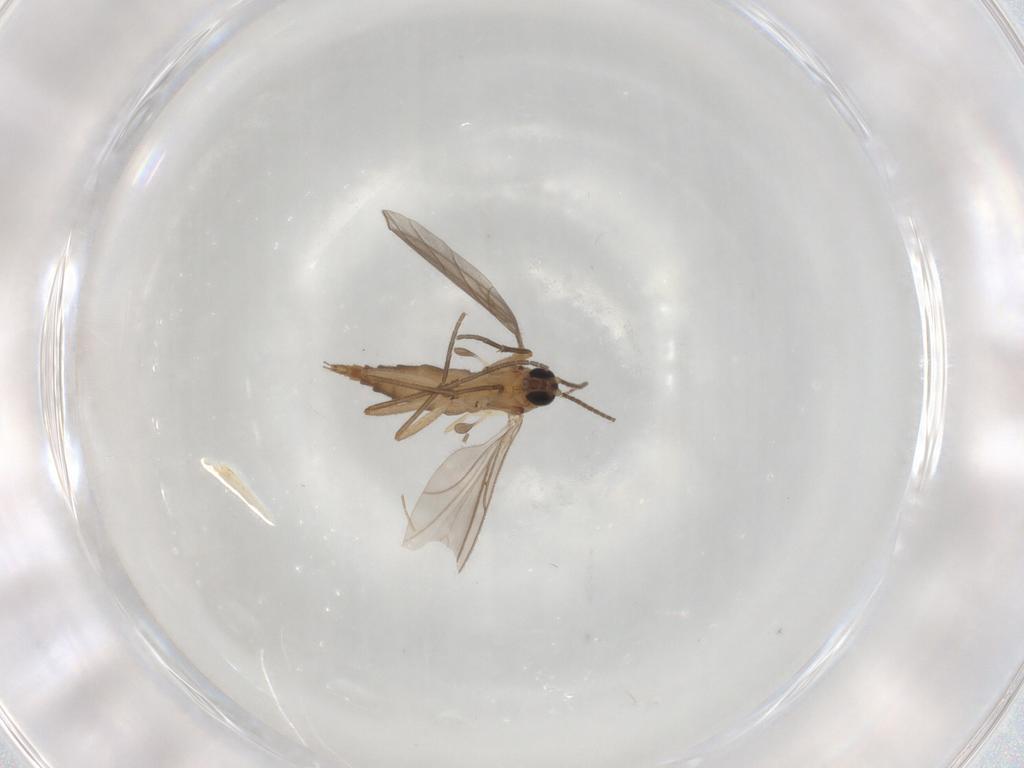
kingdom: Animalia
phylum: Arthropoda
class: Insecta
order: Diptera
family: Sciaridae
